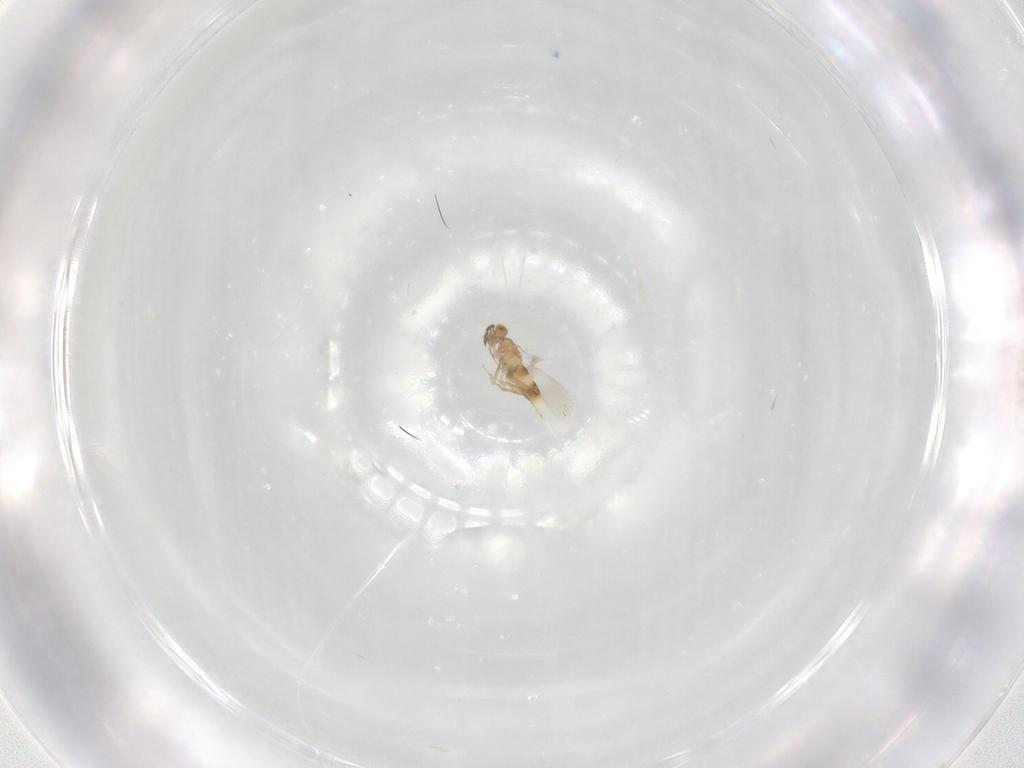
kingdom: Animalia
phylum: Arthropoda
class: Insecta
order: Hymenoptera
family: Aphelinidae
